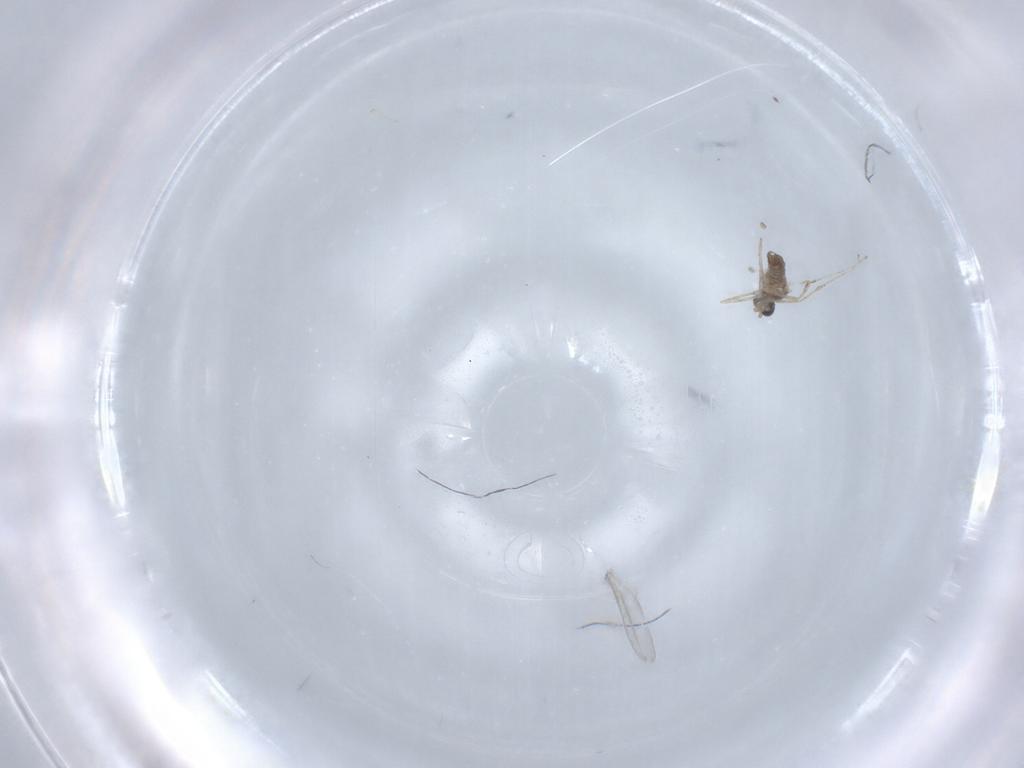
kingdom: Animalia
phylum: Arthropoda
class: Insecta
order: Diptera
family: Cecidomyiidae
